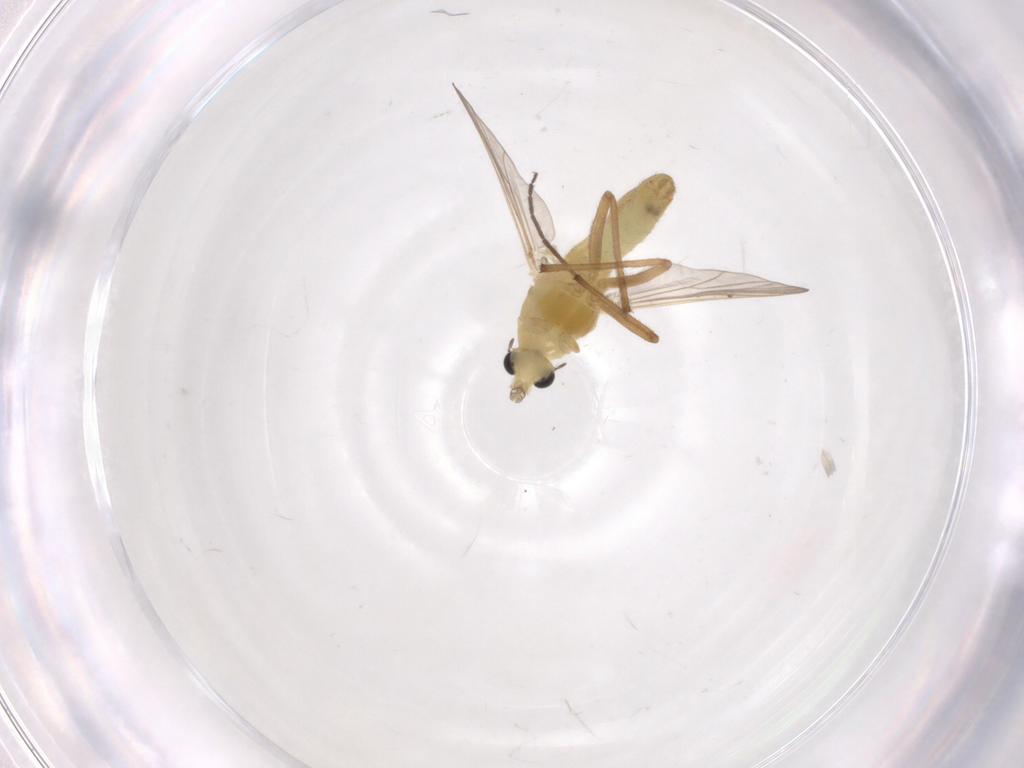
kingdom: Animalia
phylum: Arthropoda
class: Insecta
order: Diptera
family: Chironomidae
